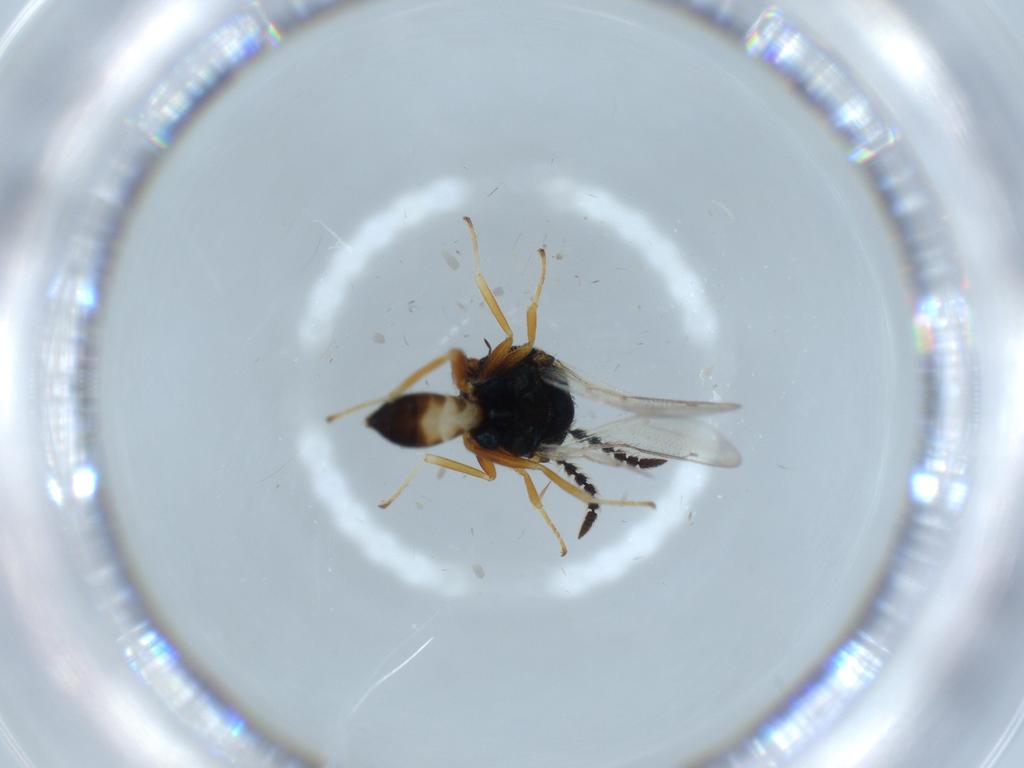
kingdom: Animalia
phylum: Arthropoda
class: Insecta
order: Hymenoptera
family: Pteromalidae
